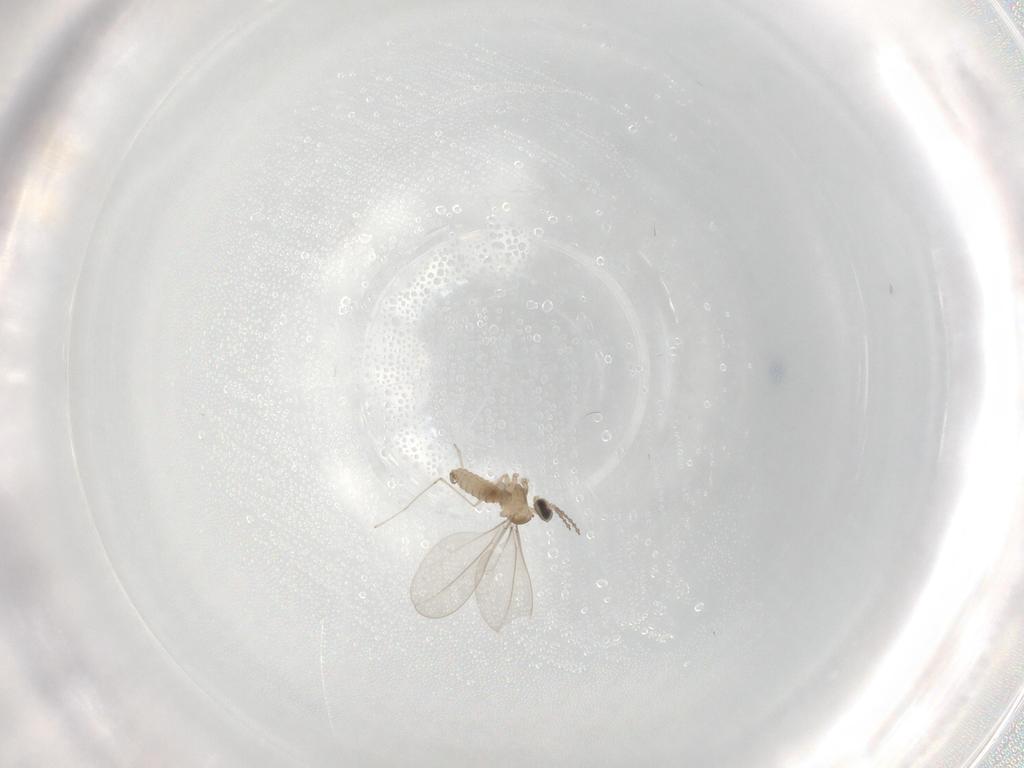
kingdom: Animalia
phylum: Arthropoda
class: Insecta
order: Diptera
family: Cecidomyiidae
